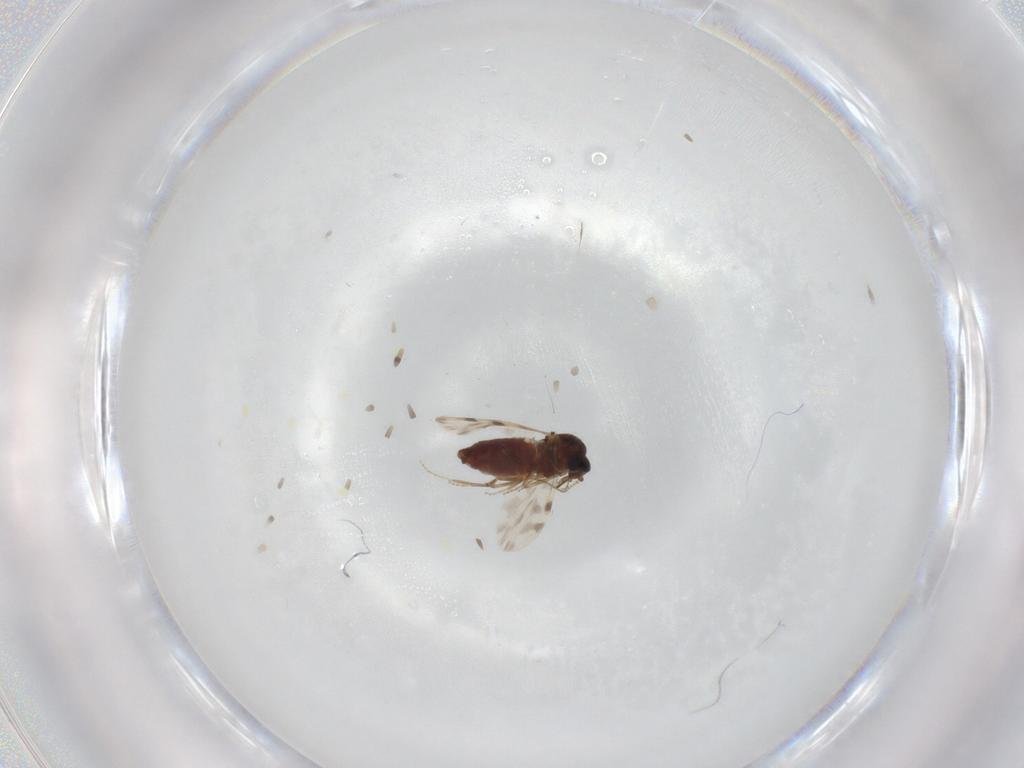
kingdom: Animalia
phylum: Arthropoda
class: Insecta
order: Diptera
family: Ceratopogonidae
